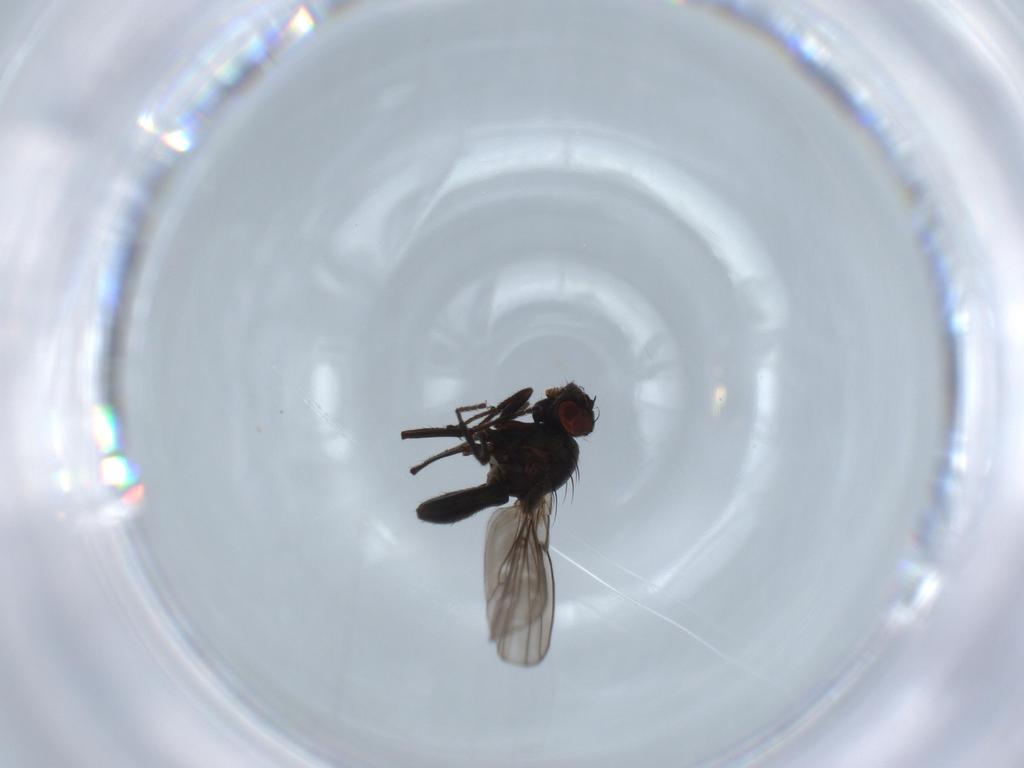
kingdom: Animalia
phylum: Arthropoda
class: Insecta
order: Diptera
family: Ephydridae
